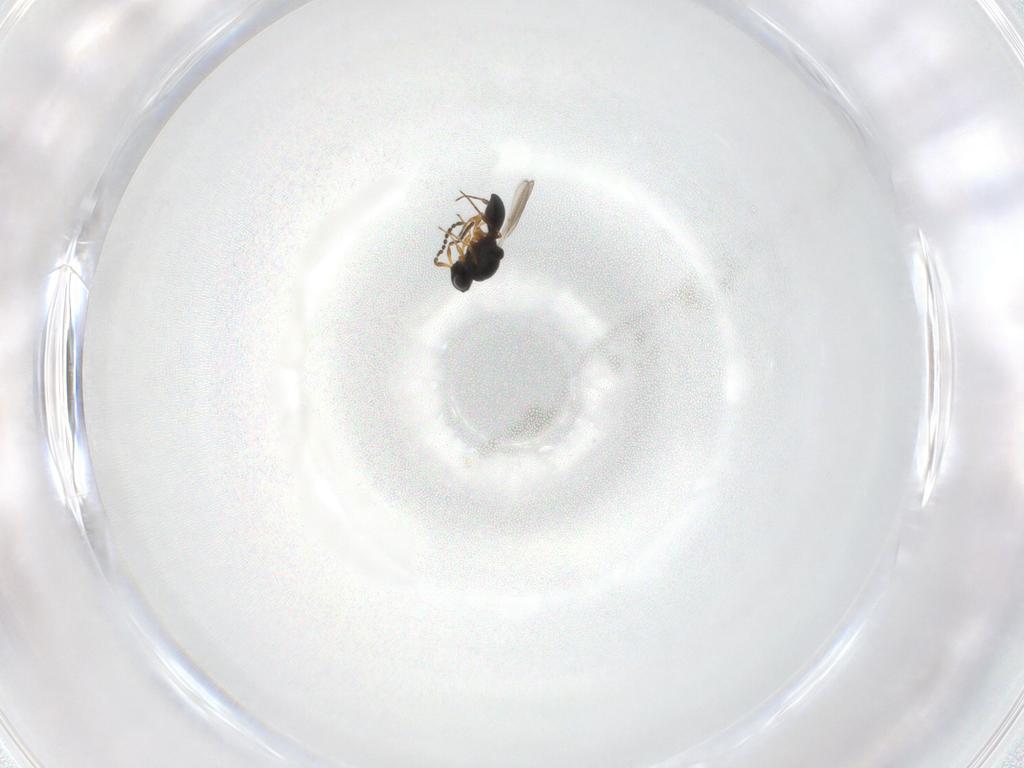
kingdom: Animalia
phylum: Arthropoda
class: Insecta
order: Hymenoptera
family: Platygastridae
